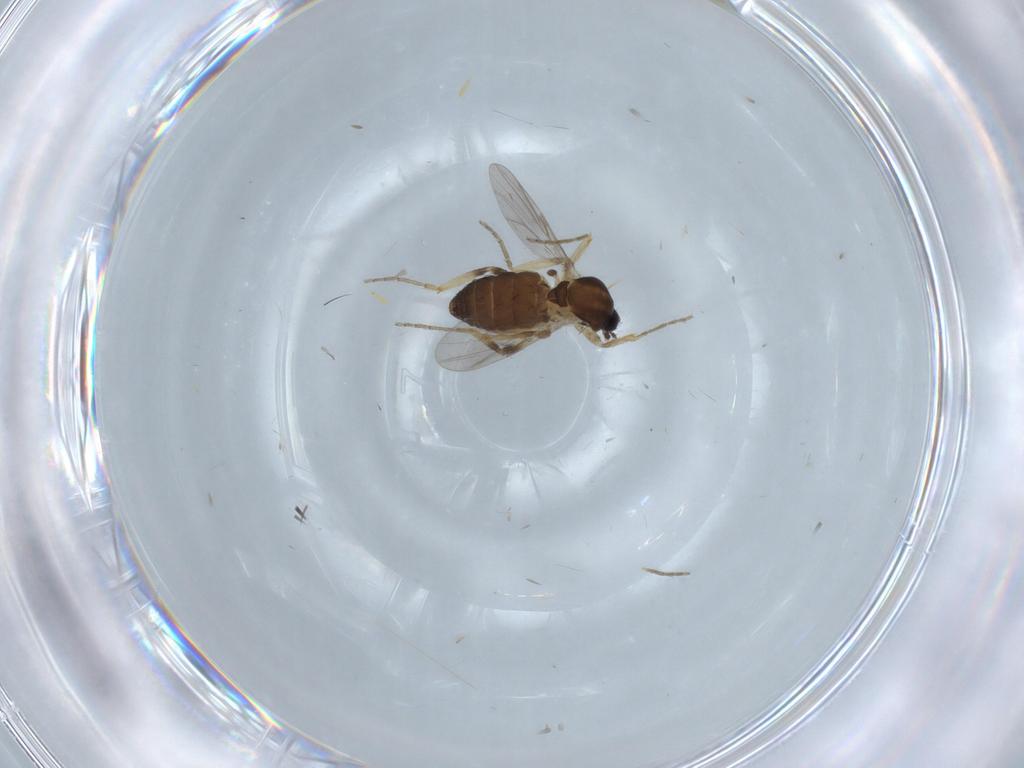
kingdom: Animalia
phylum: Arthropoda
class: Insecta
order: Diptera
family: Ceratopogonidae
